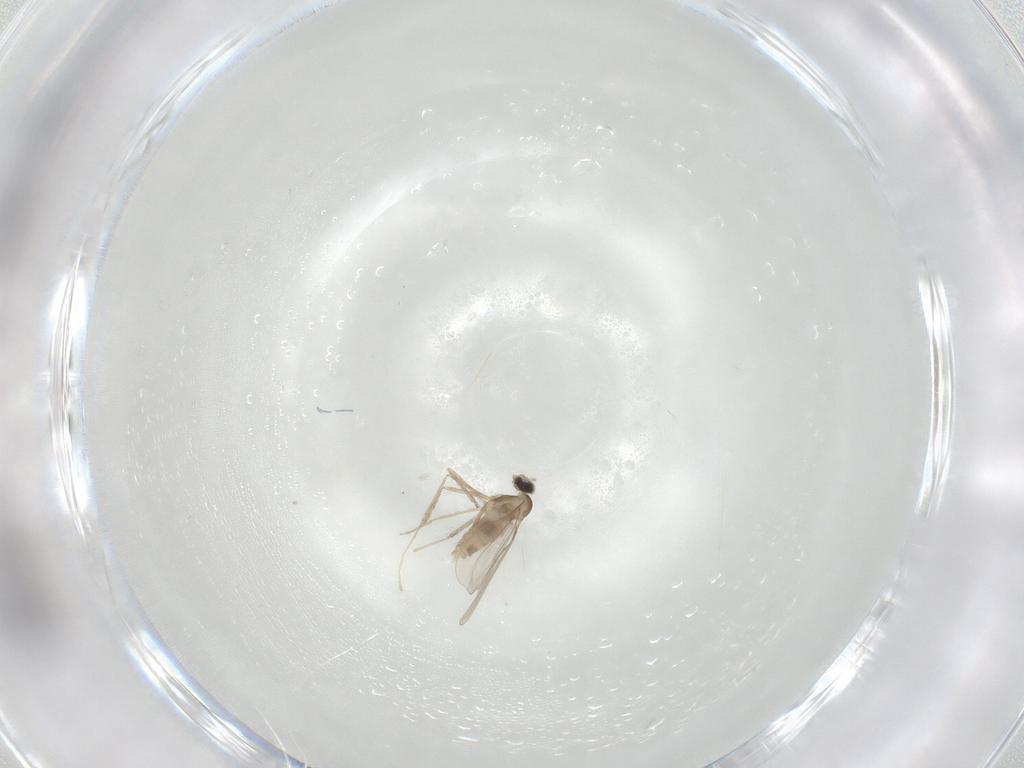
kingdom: Animalia
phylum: Arthropoda
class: Insecta
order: Diptera
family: Cecidomyiidae
